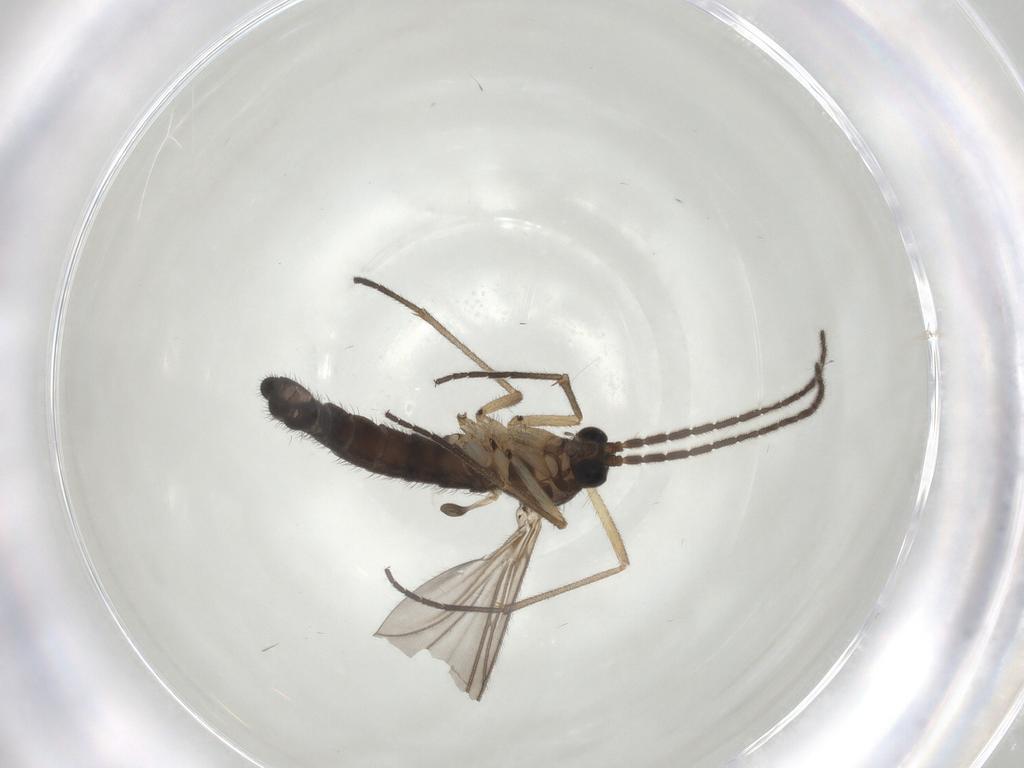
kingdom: Animalia
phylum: Arthropoda
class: Insecta
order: Diptera
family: Sciaridae
